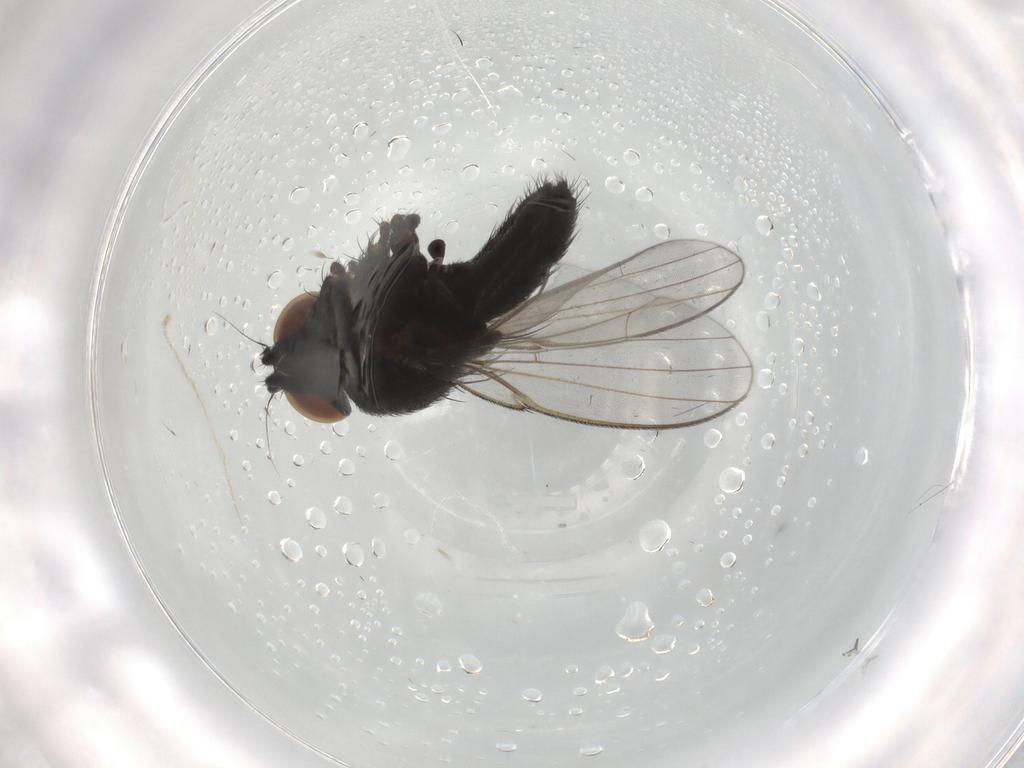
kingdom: Animalia
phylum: Arthropoda
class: Insecta
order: Diptera
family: Milichiidae
